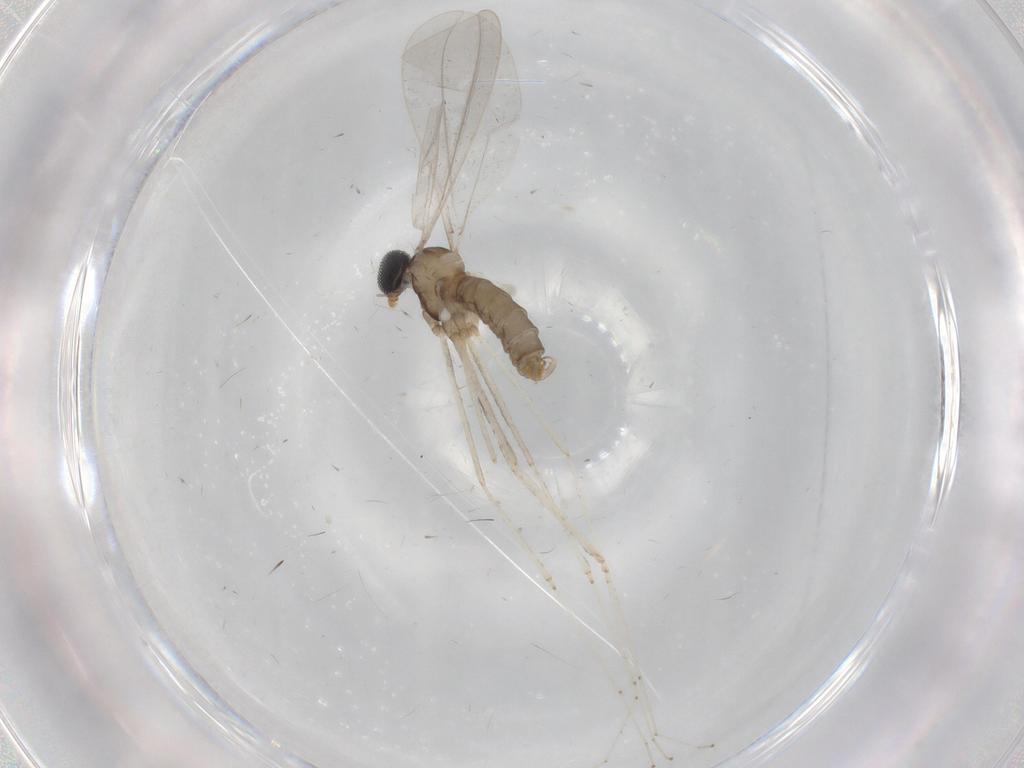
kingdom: Animalia
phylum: Arthropoda
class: Insecta
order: Diptera
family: Cecidomyiidae
